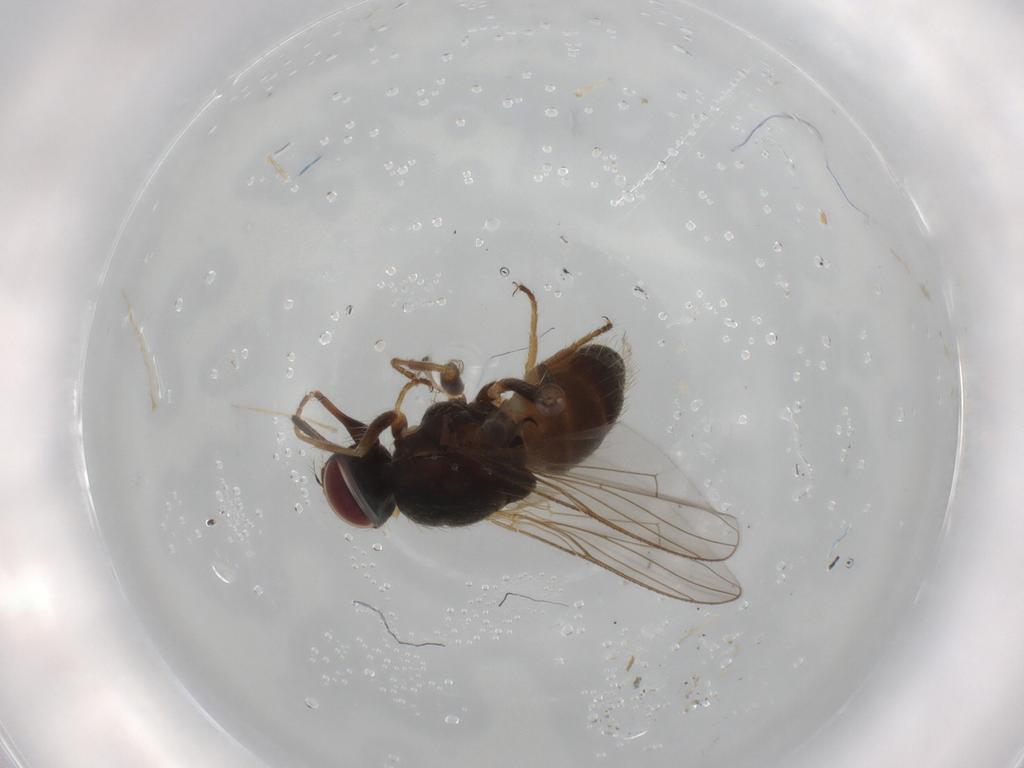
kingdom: Animalia
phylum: Arthropoda
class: Insecta
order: Diptera
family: Muscidae
